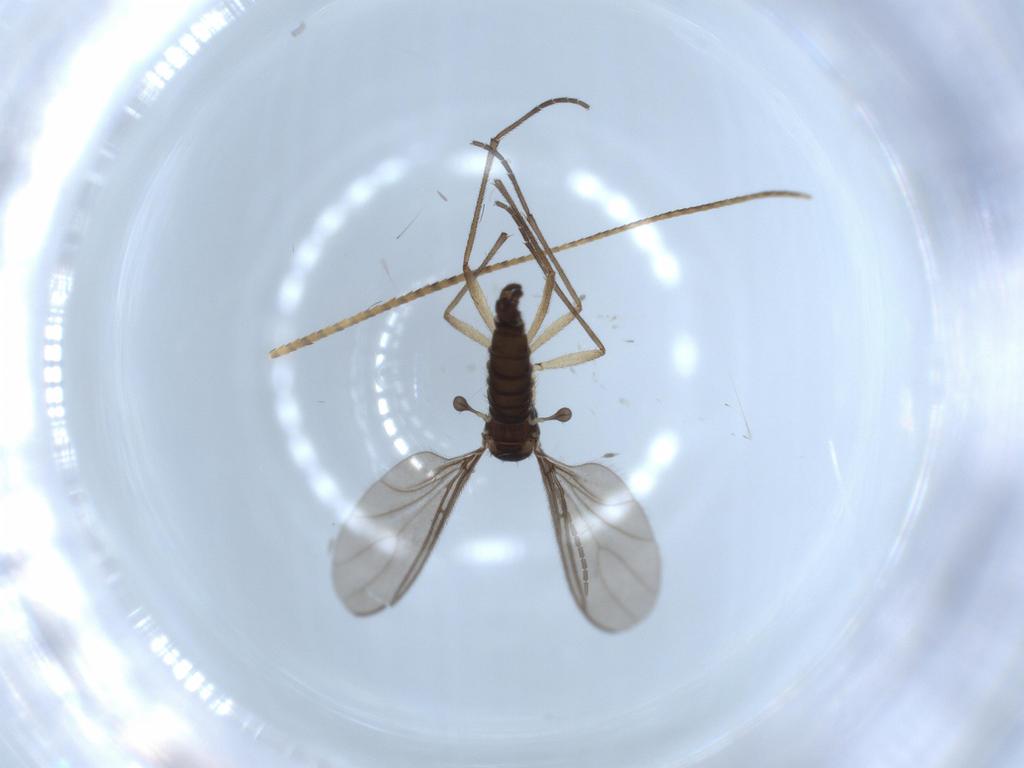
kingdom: Animalia
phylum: Arthropoda
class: Insecta
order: Diptera
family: Sciaridae
